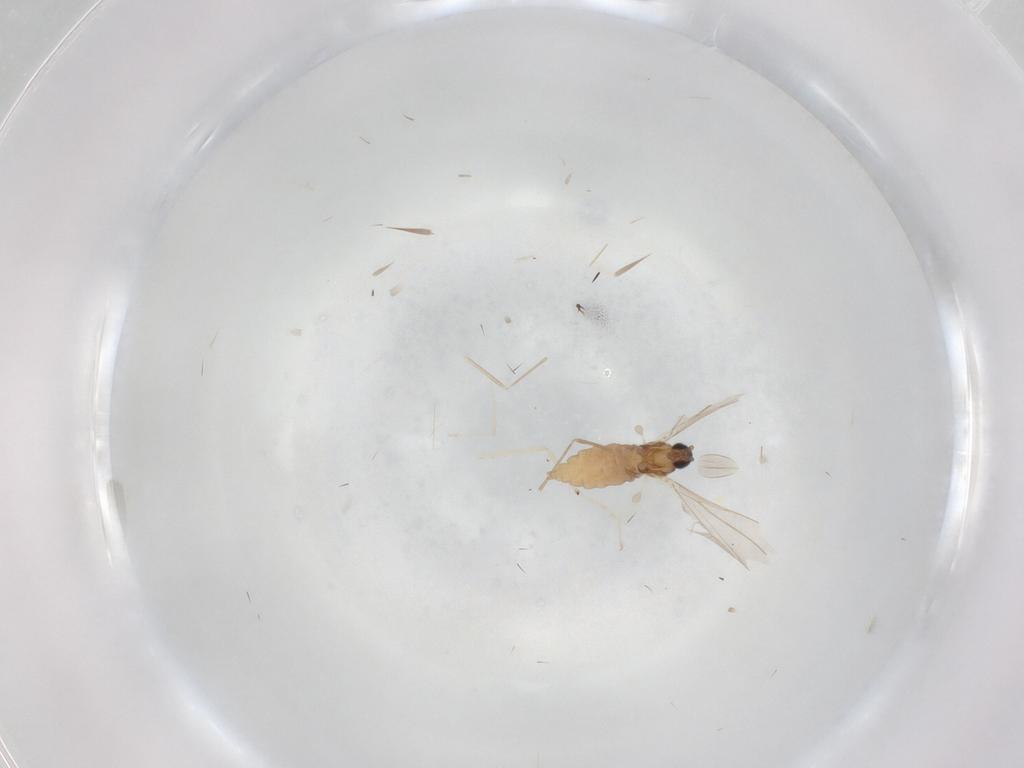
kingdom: Animalia
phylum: Arthropoda
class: Insecta
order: Diptera
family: Cecidomyiidae
